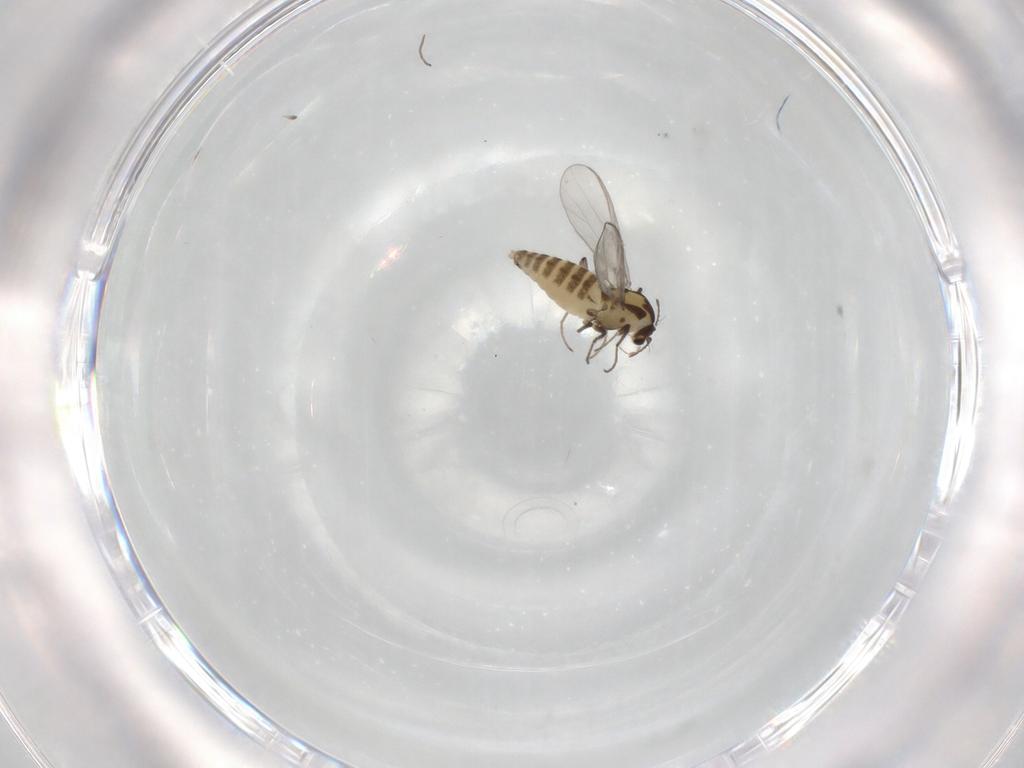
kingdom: Animalia
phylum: Arthropoda
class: Insecta
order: Diptera
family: Chironomidae
